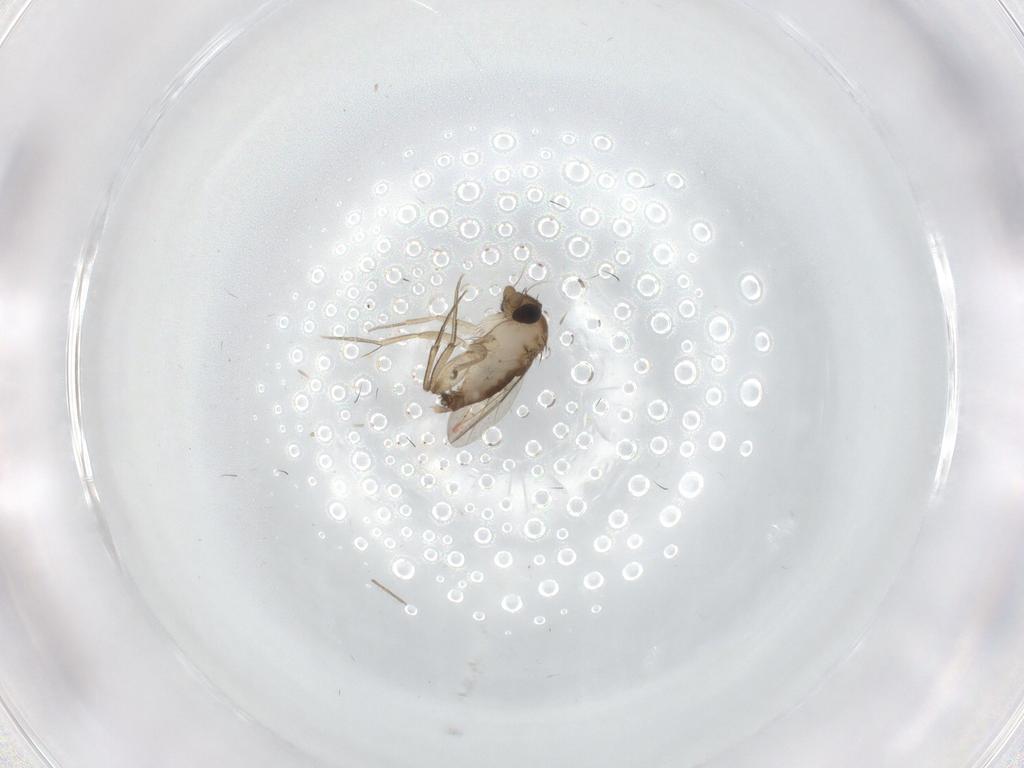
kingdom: Animalia
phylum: Arthropoda
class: Insecta
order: Diptera
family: Phoridae
